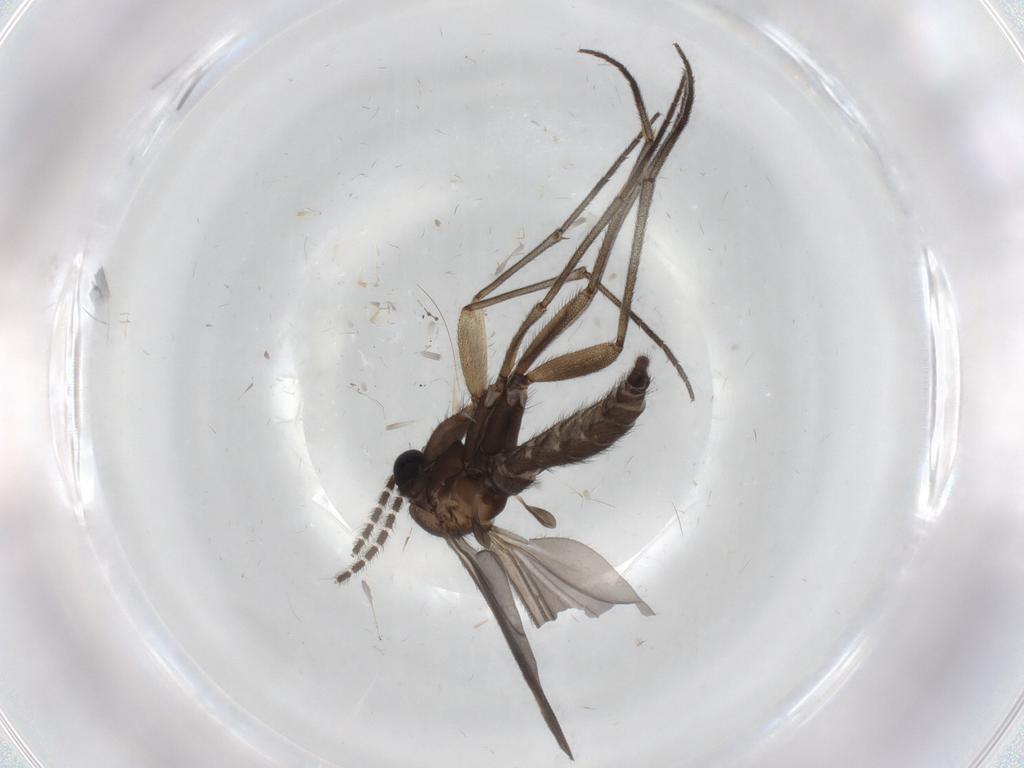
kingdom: Animalia
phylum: Arthropoda
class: Insecta
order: Diptera
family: Sciaridae
